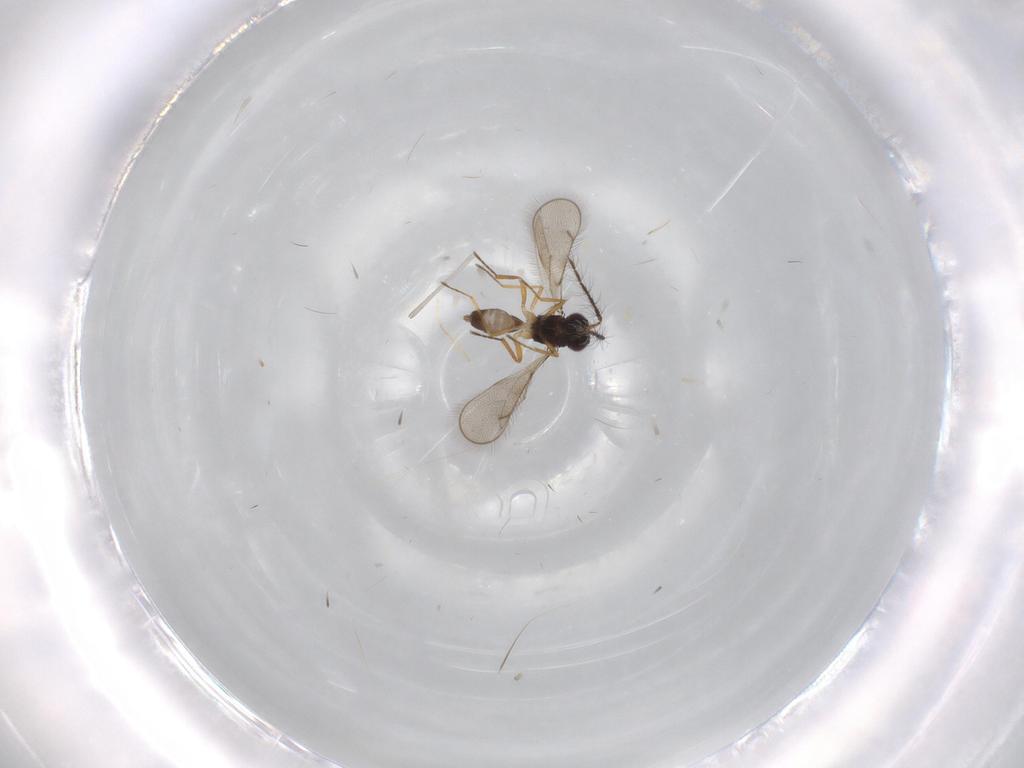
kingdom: Animalia
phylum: Arthropoda
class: Insecta
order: Hymenoptera
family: Eulophidae
